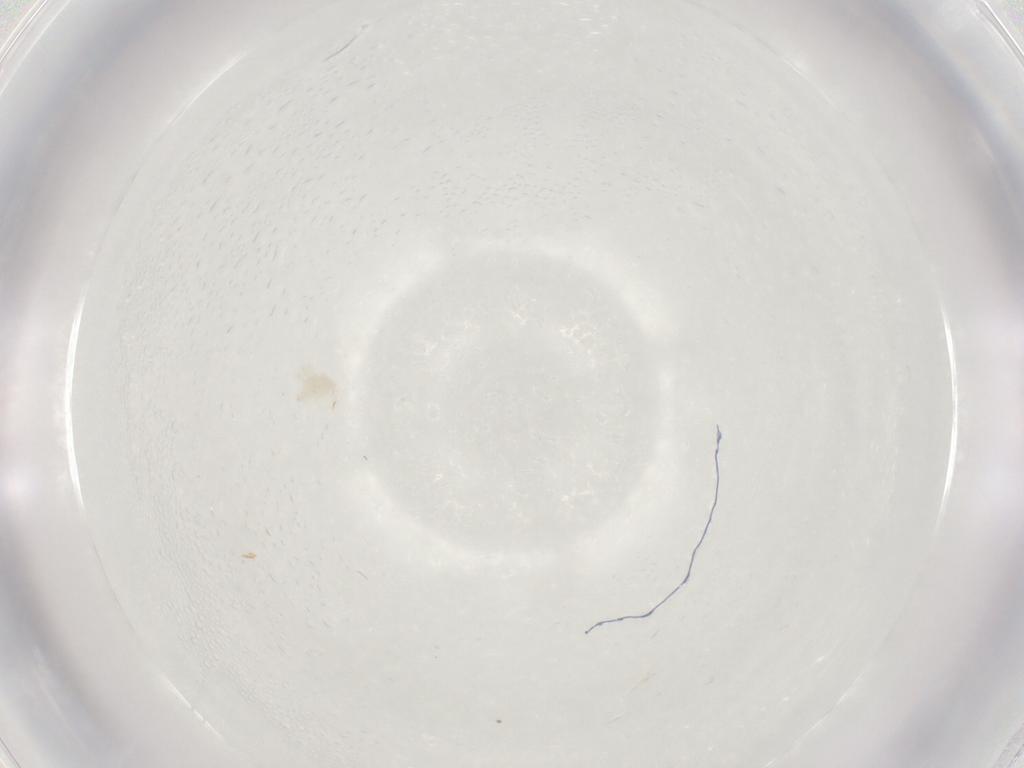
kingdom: Animalia
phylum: Arthropoda
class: Arachnida
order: Trombidiformes
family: Anystidae
